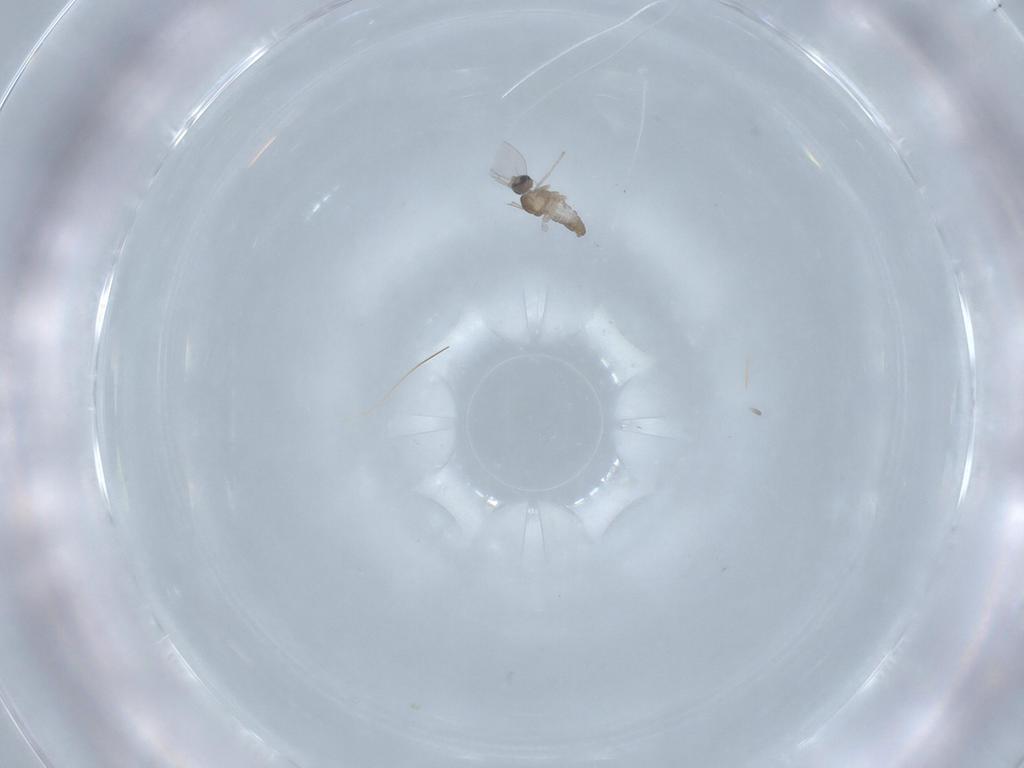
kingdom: Animalia
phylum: Arthropoda
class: Insecta
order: Diptera
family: Cecidomyiidae
